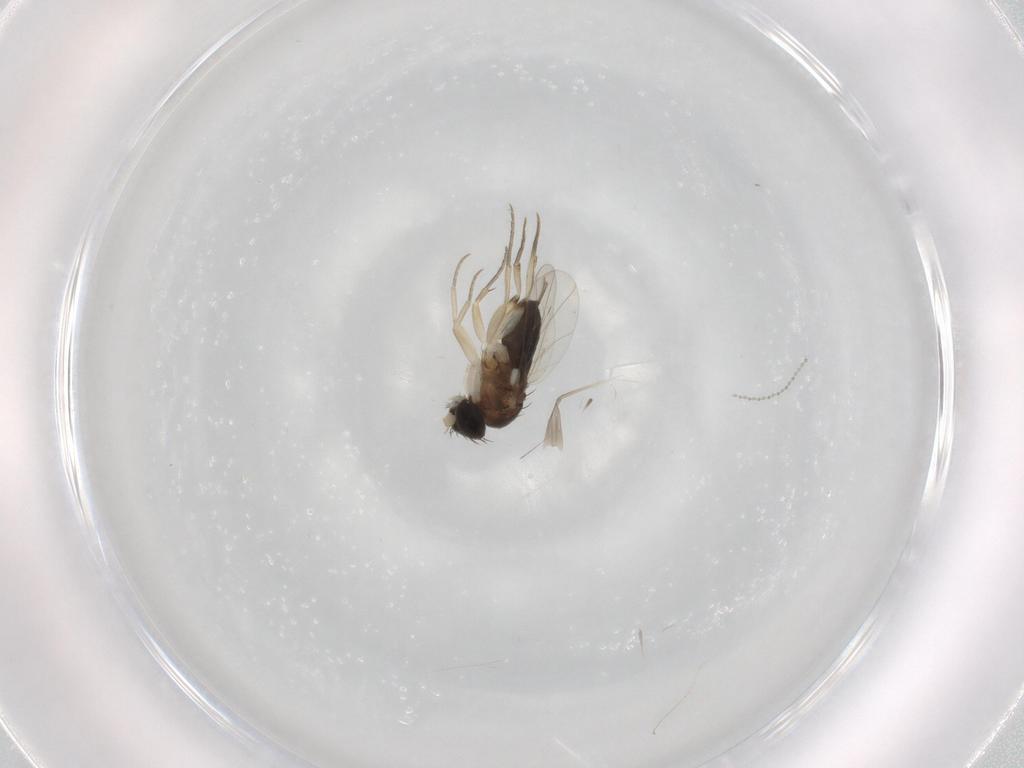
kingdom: Animalia
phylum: Arthropoda
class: Insecta
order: Diptera
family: Phoridae
